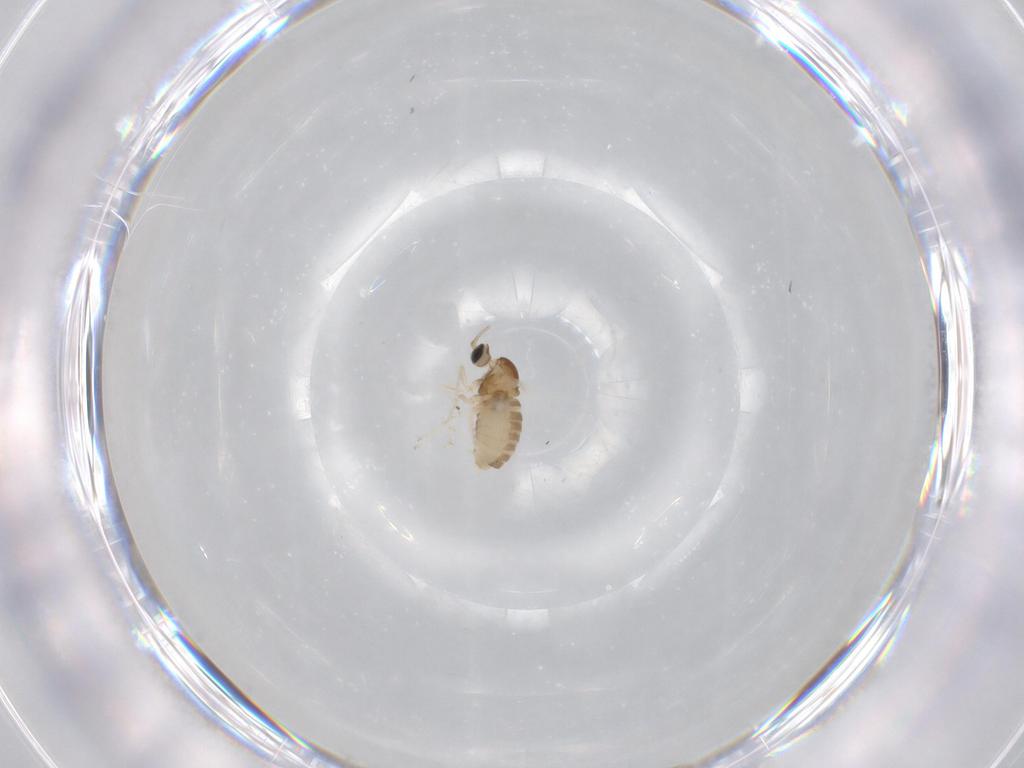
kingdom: Animalia
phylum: Arthropoda
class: Insecta
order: Diptera
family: Cecidomyiidae
